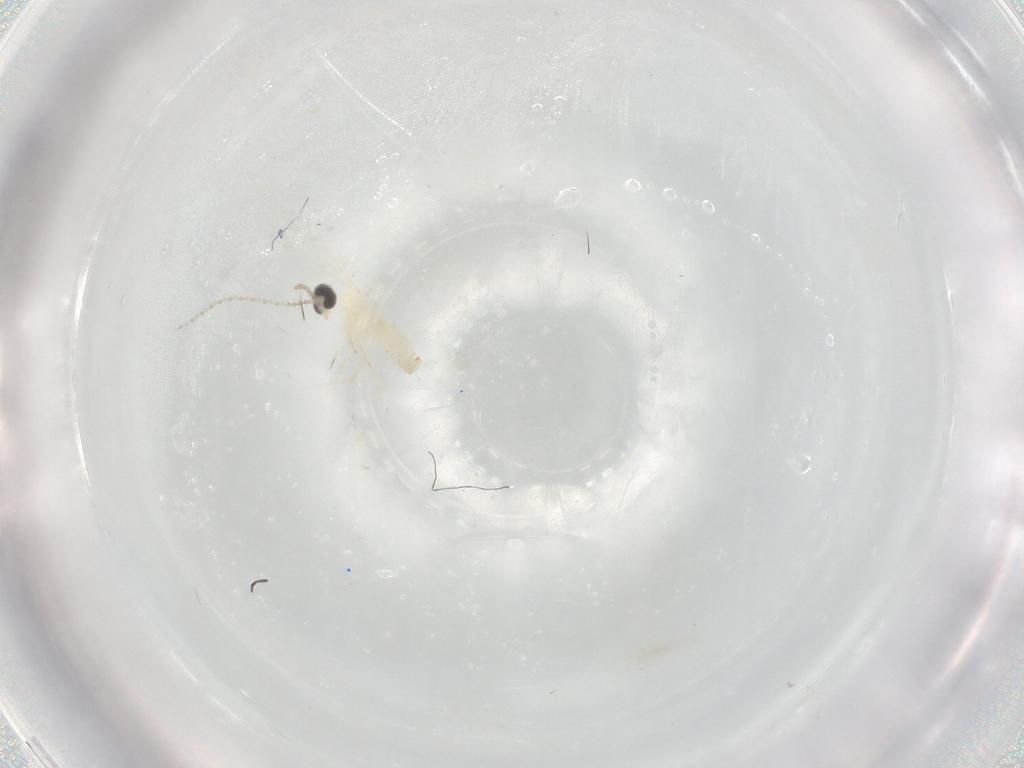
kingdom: Animalia
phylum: Arthropoda
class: Insecta
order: Diptera
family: Cecidomyiidae
